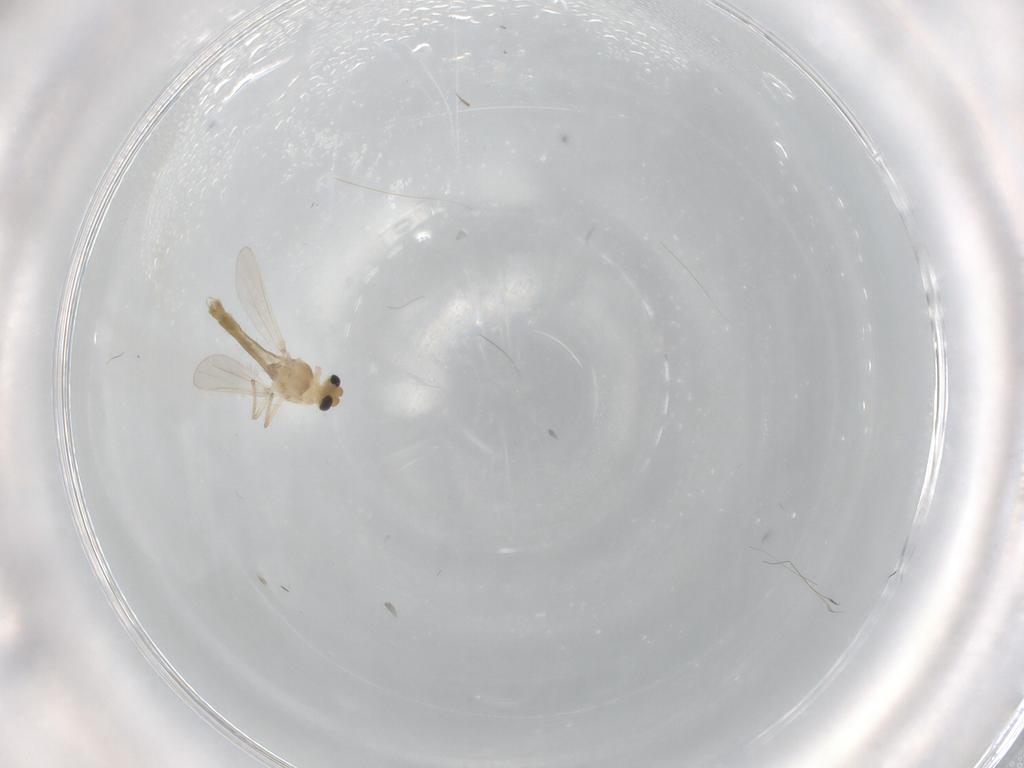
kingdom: Animalia
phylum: Arthropoda
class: Insecta
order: Diptera
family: Chironomidae
